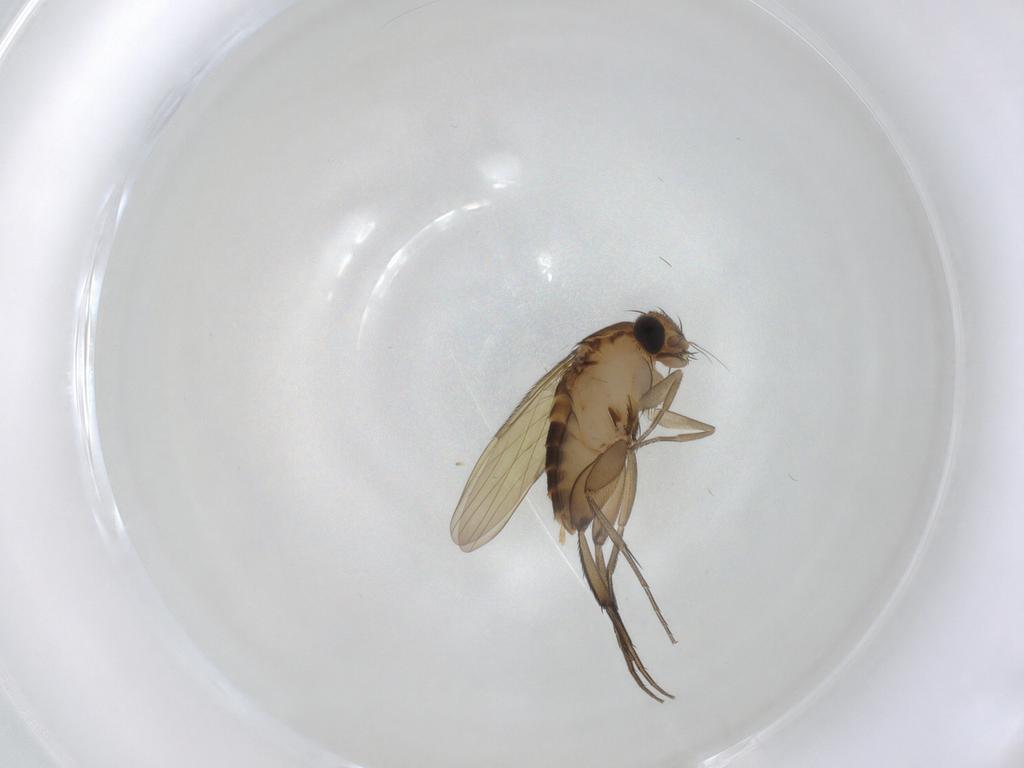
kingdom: Animalia
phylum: Arthropoda
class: Insecta
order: Diptera
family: Phoridae
